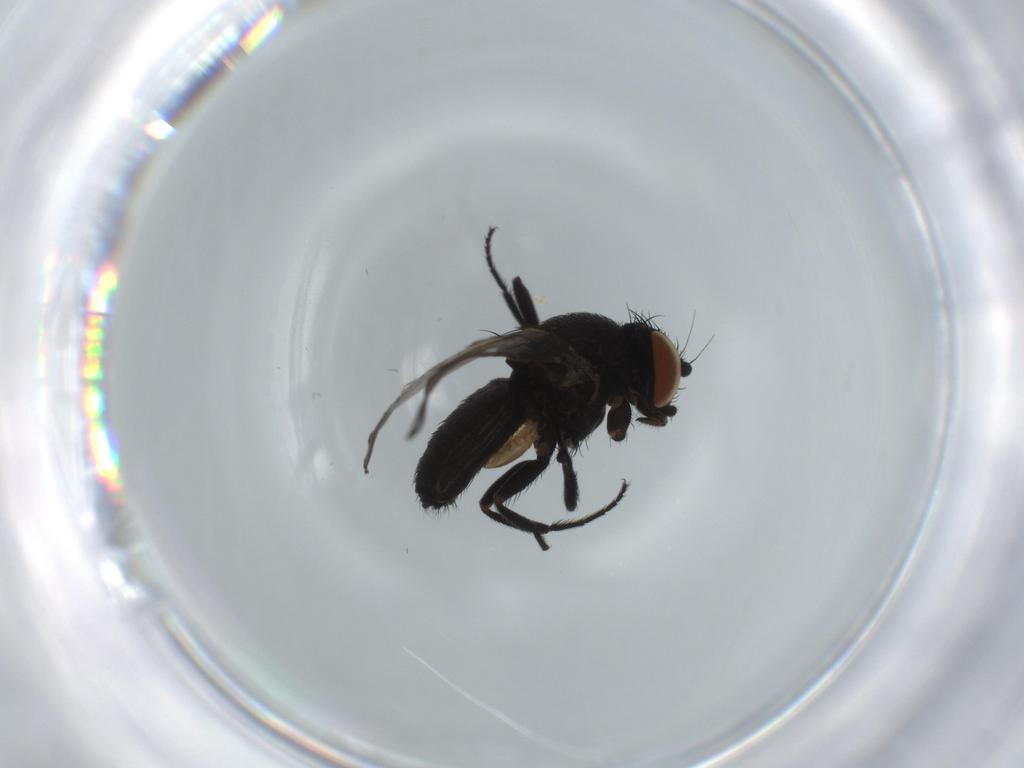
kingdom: Animalia
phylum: Arthropoda
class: Insecta
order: Diptera
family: Milichiidae
